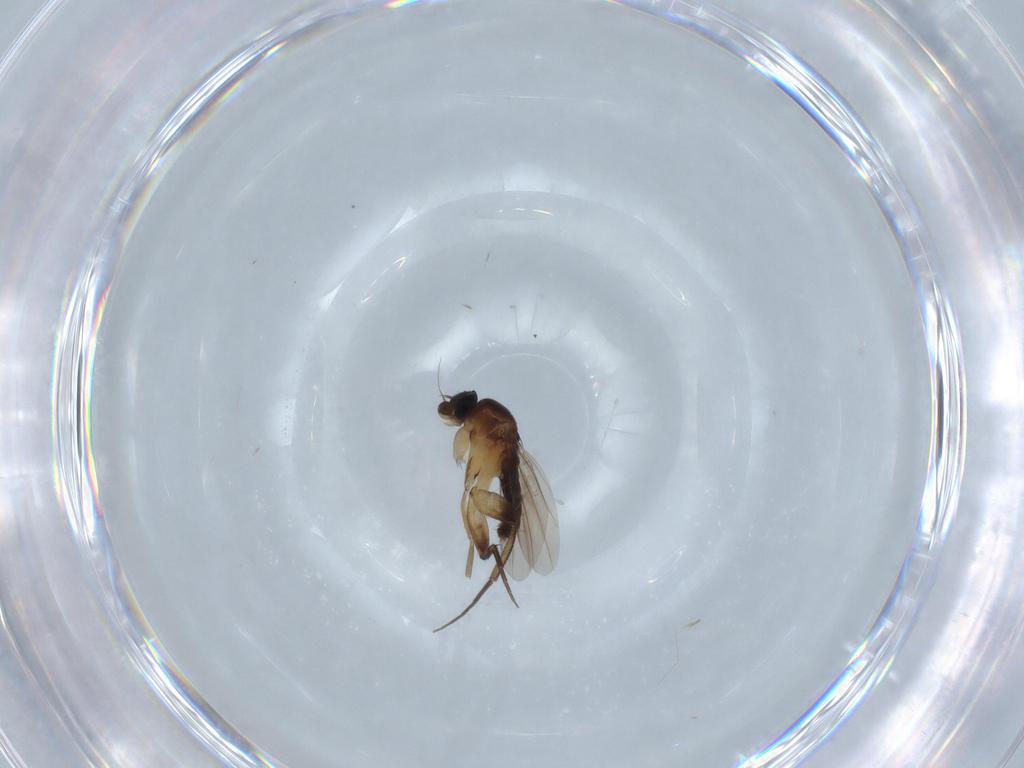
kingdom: Animalia
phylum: Arthropoda
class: Insecta
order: Diptera
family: Phoridae
